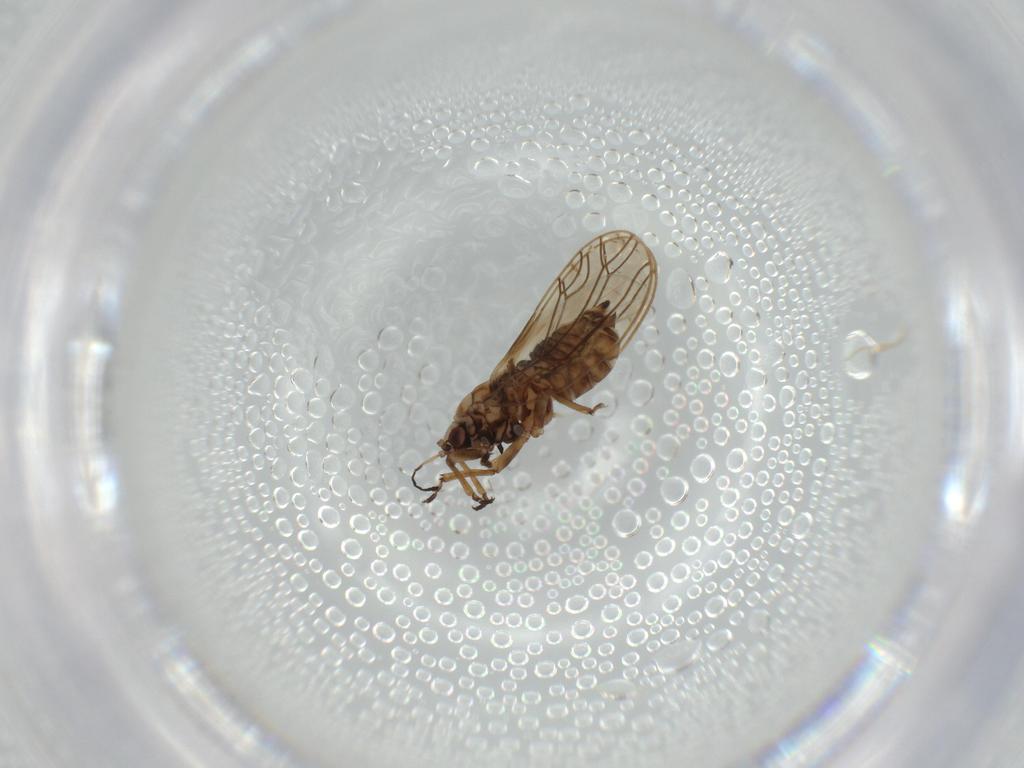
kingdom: Animalia
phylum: Arthropoda
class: Insecta
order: Hemiptera
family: Triozidae
